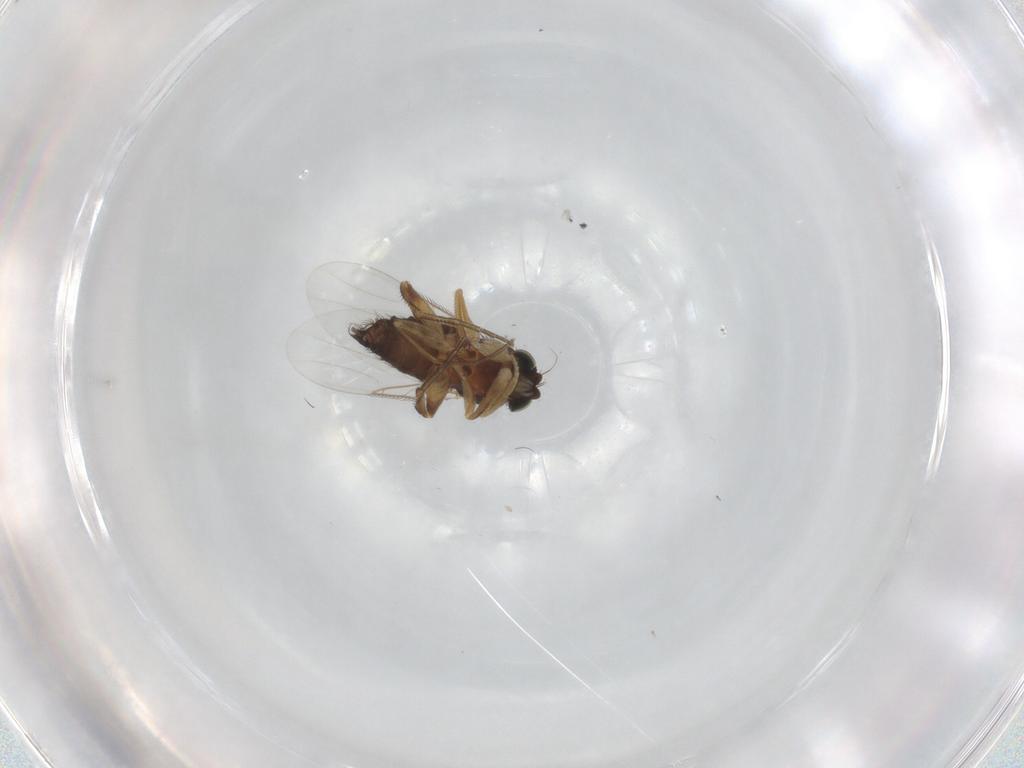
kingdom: Animalia
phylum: Arthropoda
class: Insecta
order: Diptera
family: Phoridae
